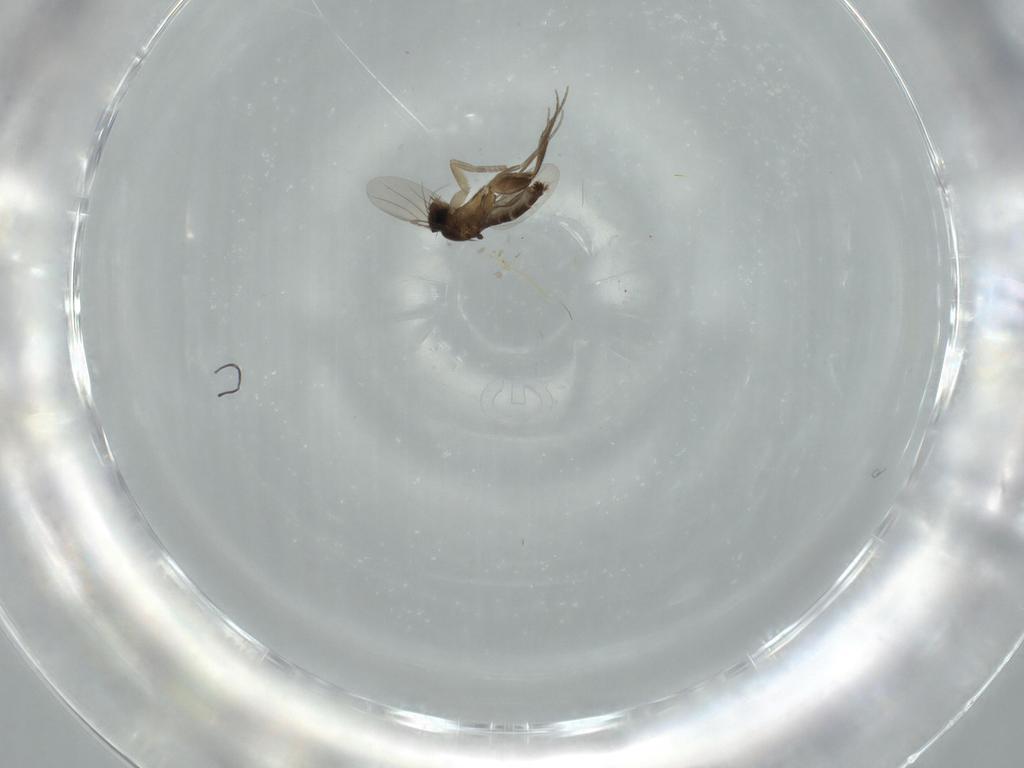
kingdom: Animalia
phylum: Arthropoda
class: Insecta
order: Diptera
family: Phoridae
